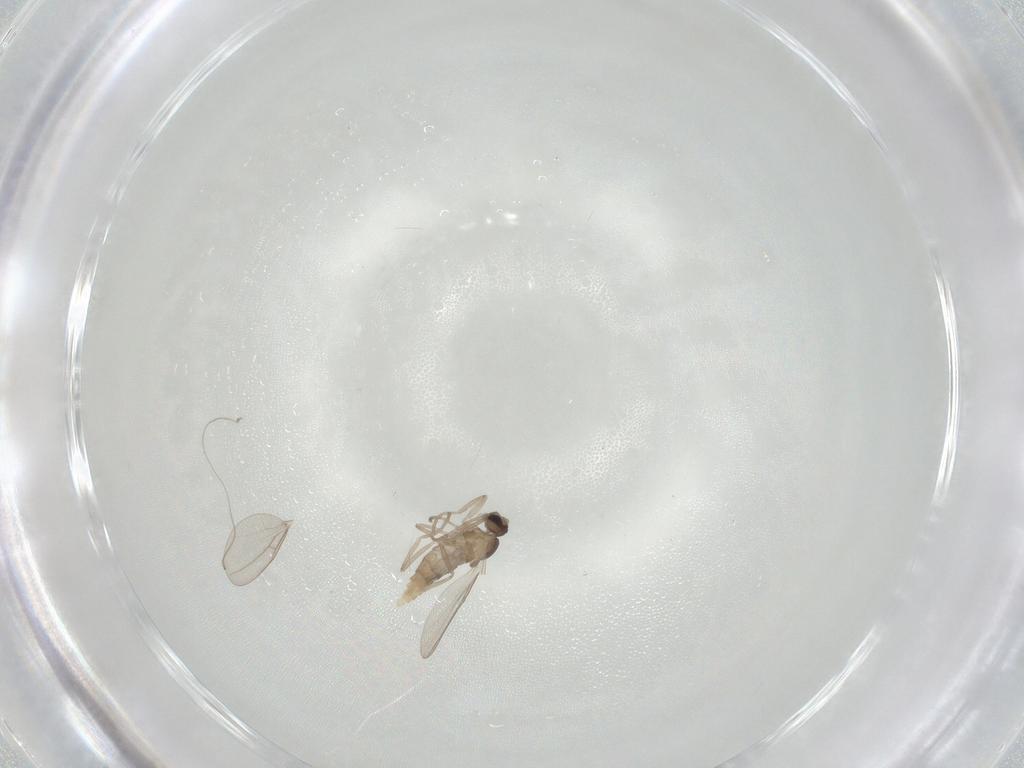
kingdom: Animalia
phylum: Arthropoda
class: Insecta
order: Diptera
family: Cecidomyiidae
